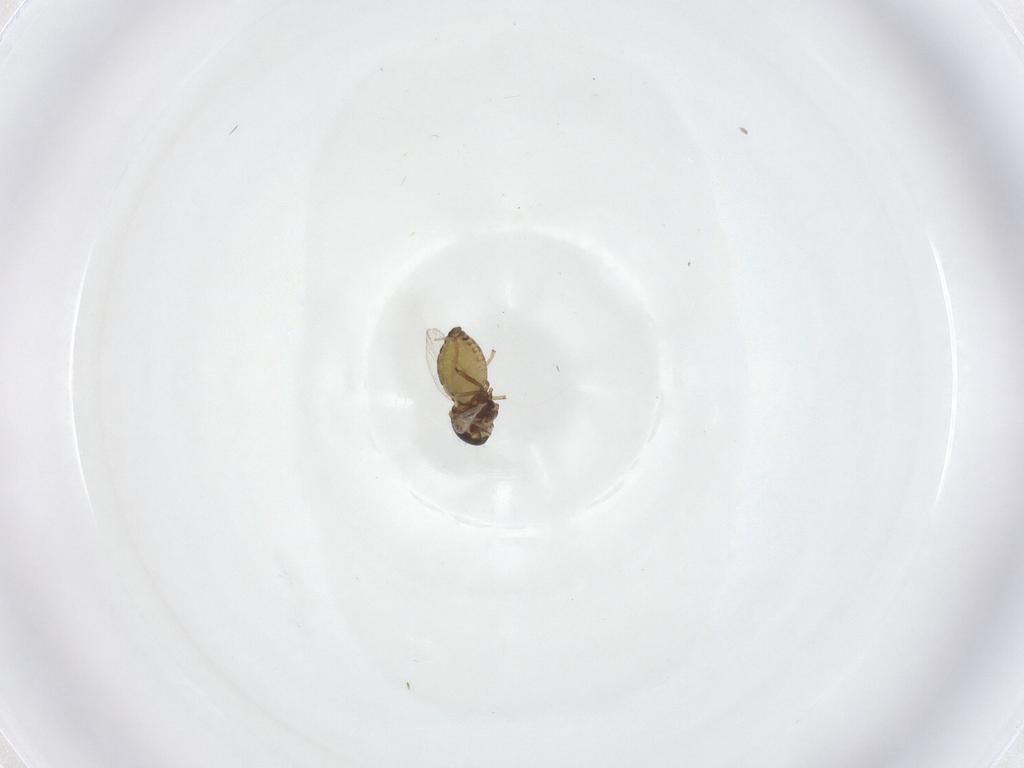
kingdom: Animalia
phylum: Arthropoda
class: Insecta
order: Diptera
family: Ceratopogonidae
